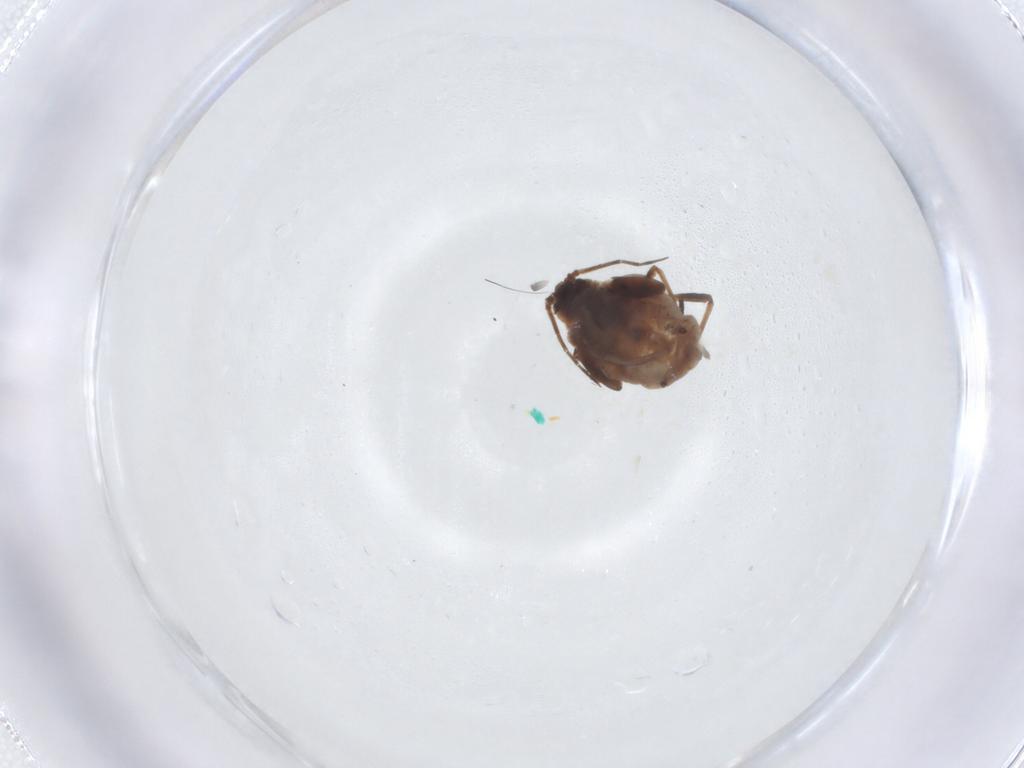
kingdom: Animalia
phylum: Arthropoda
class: Insecta
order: Hemiptera
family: Aphididae
